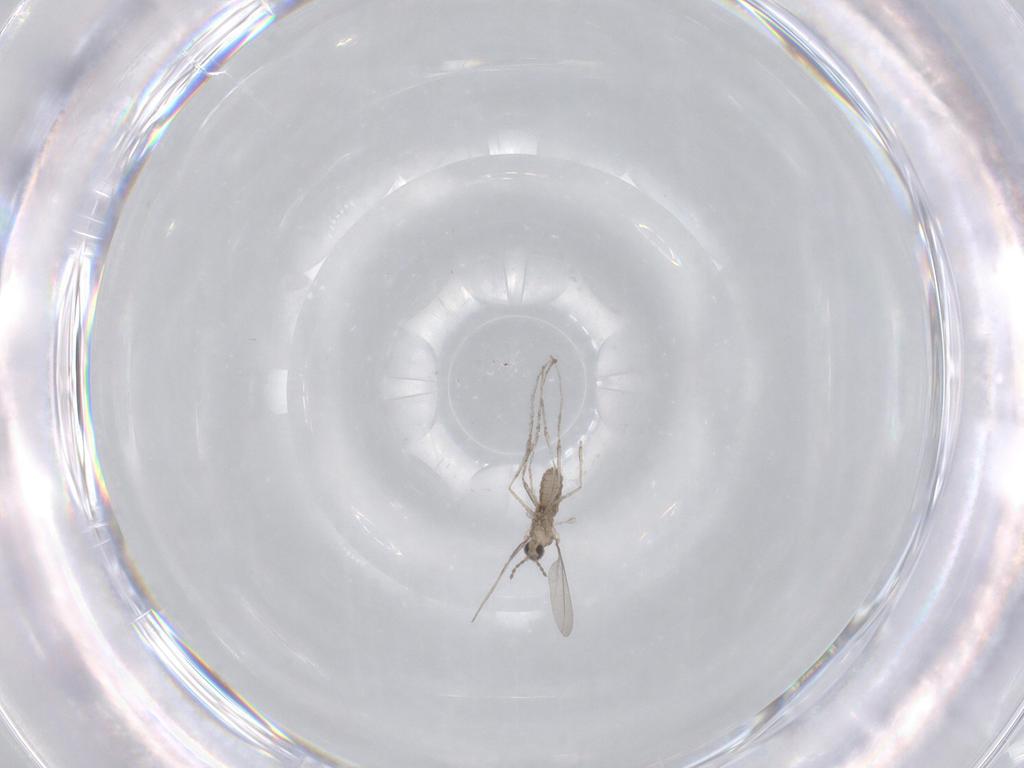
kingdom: Animalia
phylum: Arthropoda
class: Insecta
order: Diptera
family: Cecidomyiidae
